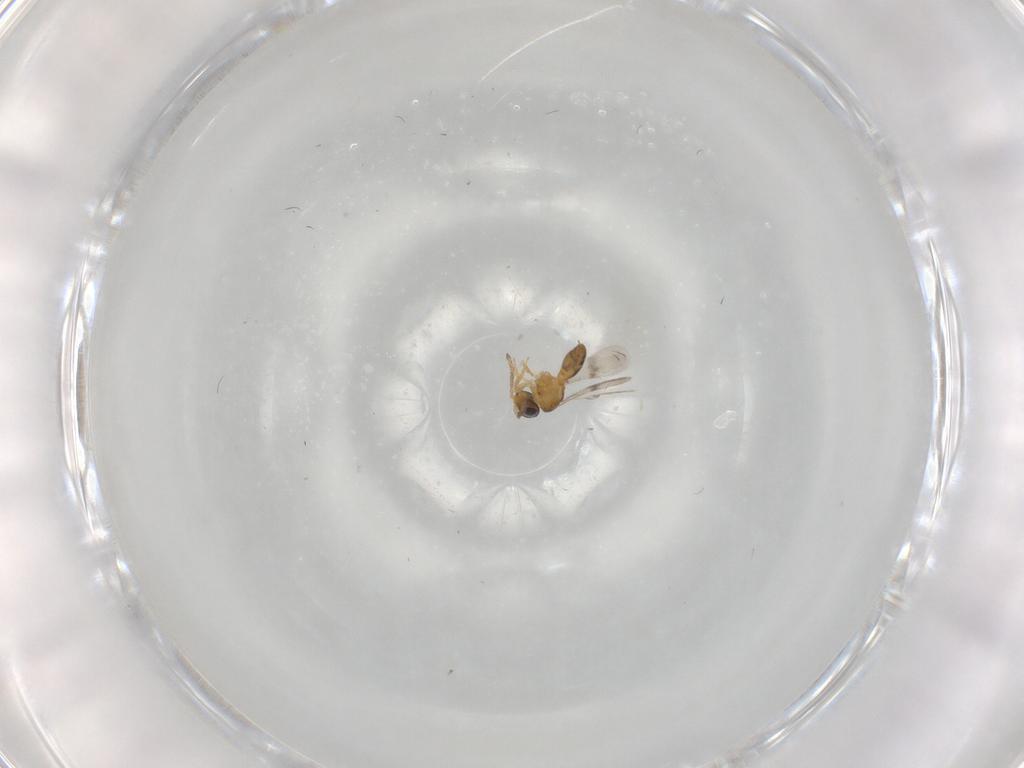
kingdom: Animalia
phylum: Arthropoda
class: Insecta
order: Hymenoptera
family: Scelionidae
